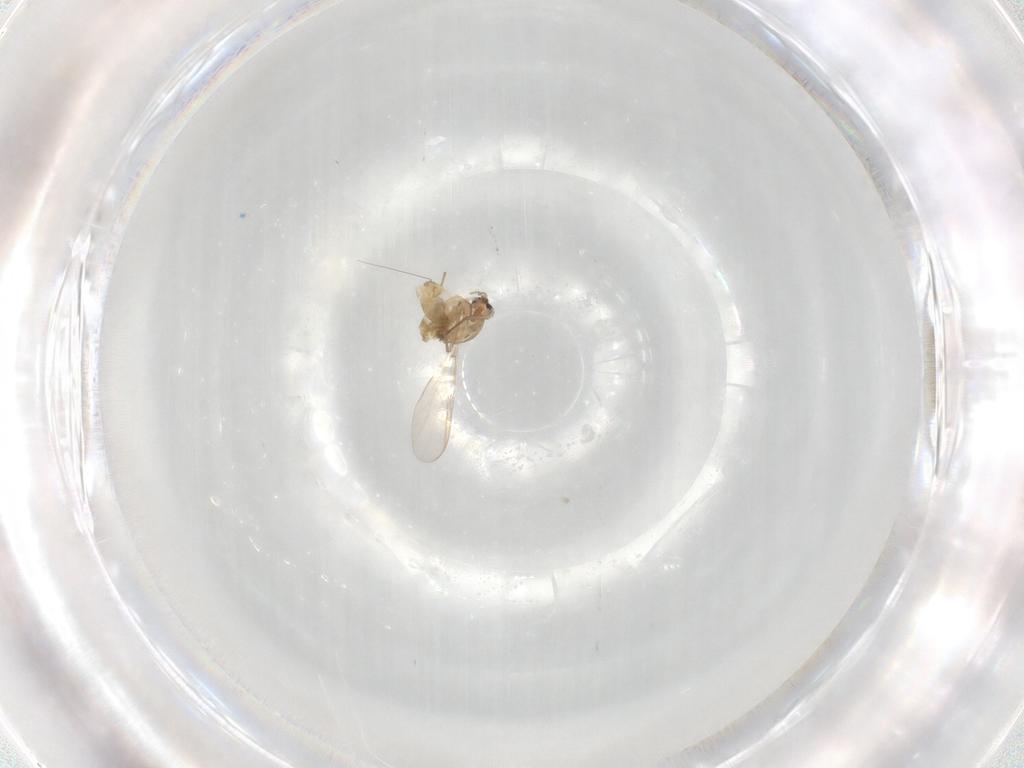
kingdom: Animalia
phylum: Arthropoda
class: Insecta
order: Diptera
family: Chironomidae
